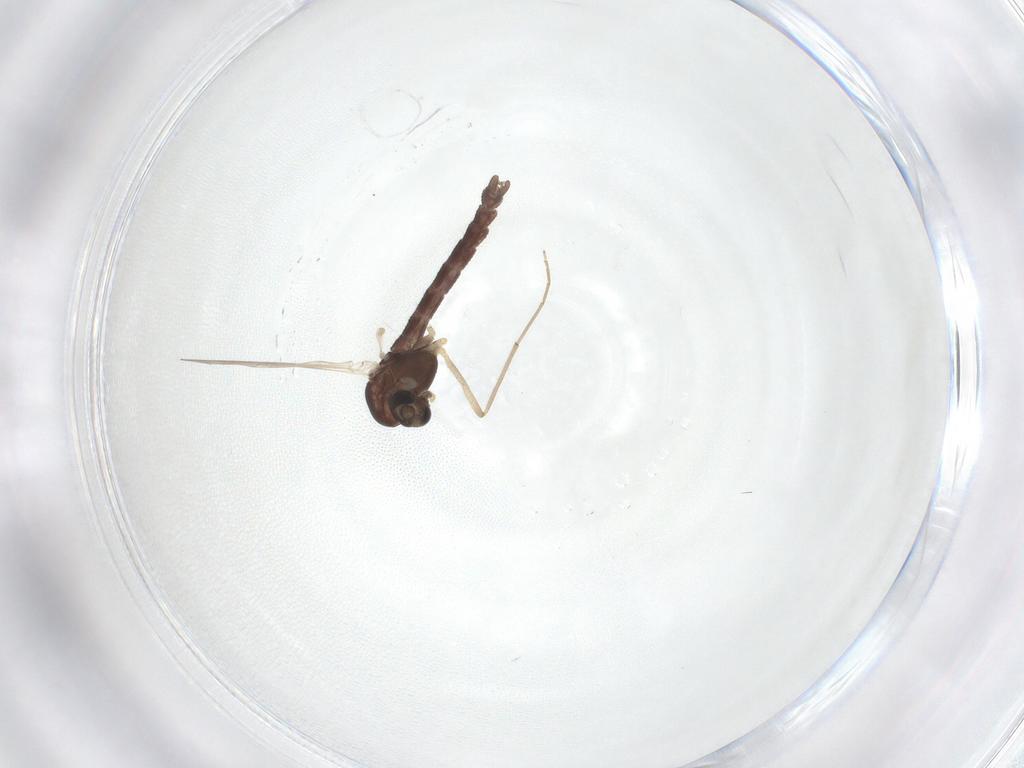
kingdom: Animalia
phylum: Arthropoda
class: Insecta
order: Diptera
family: Chironomidae
